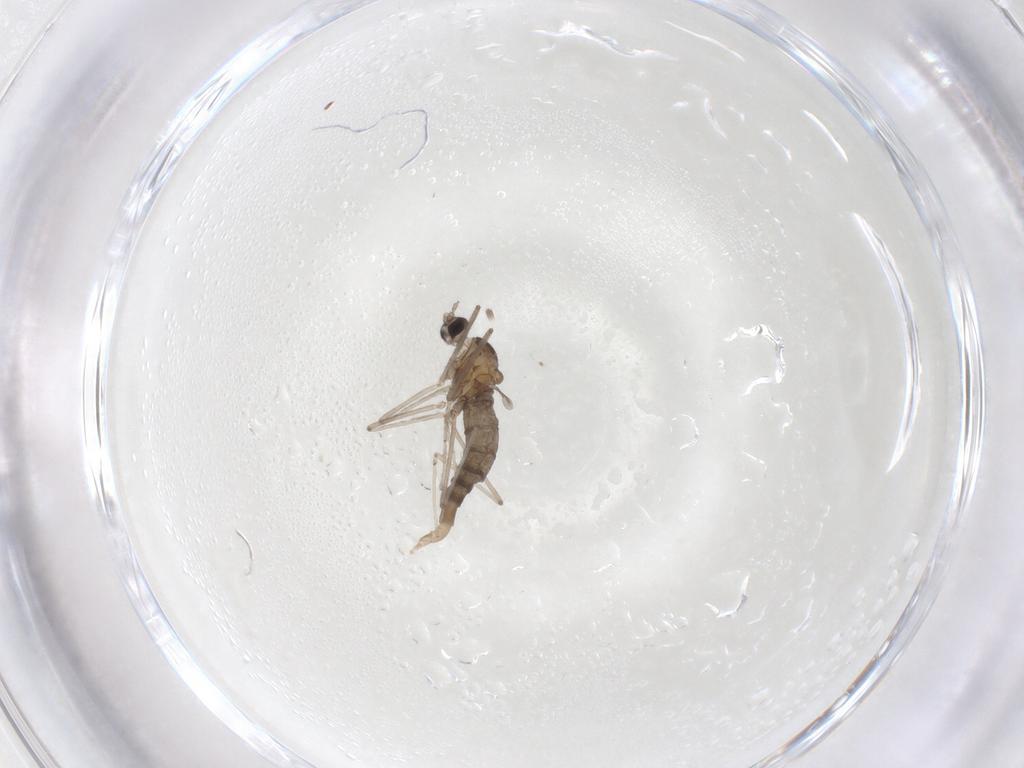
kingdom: Animalia
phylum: Arthropoda
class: Insecta
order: Diptera
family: Cecidomyiidae
